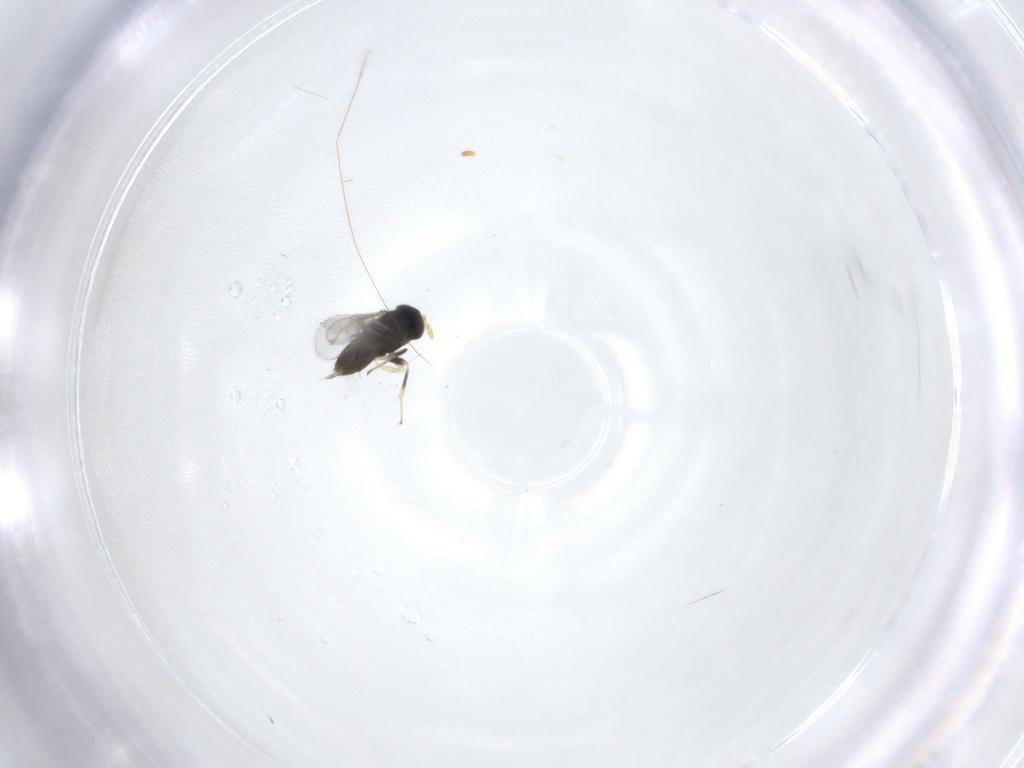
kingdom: Animalia
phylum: Arthropoda
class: Insecta
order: Hymenoptera
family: Aphelinidae
